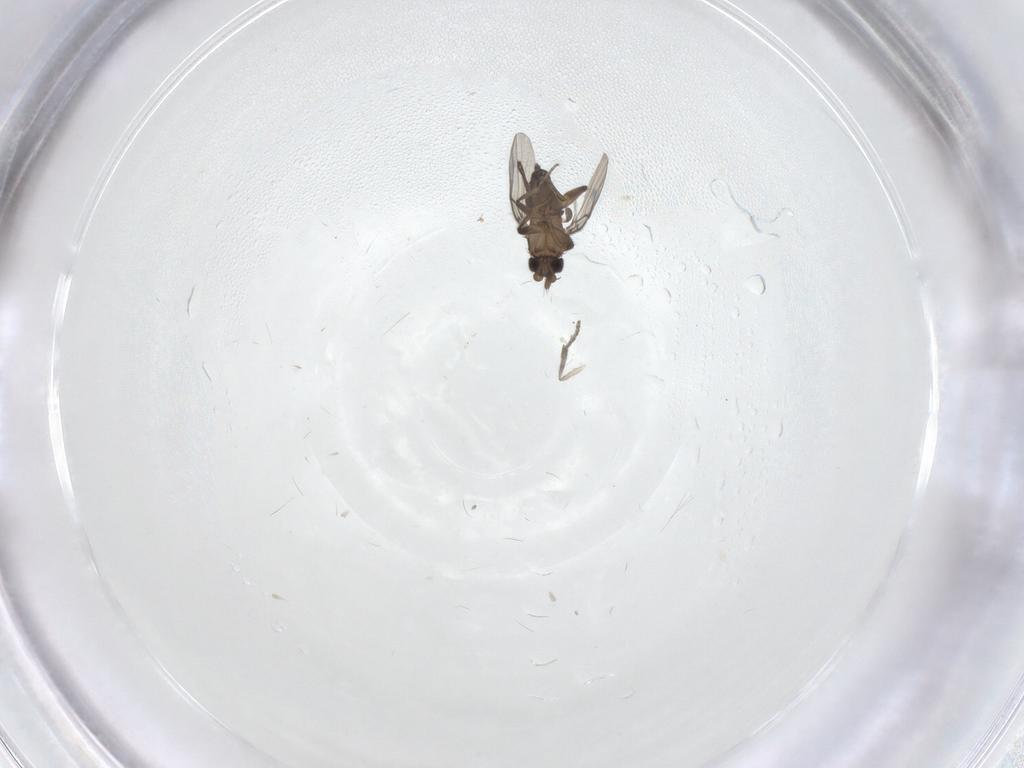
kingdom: Animalia
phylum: Arthropoda
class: Insecta
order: Diptera
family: Phoridae
